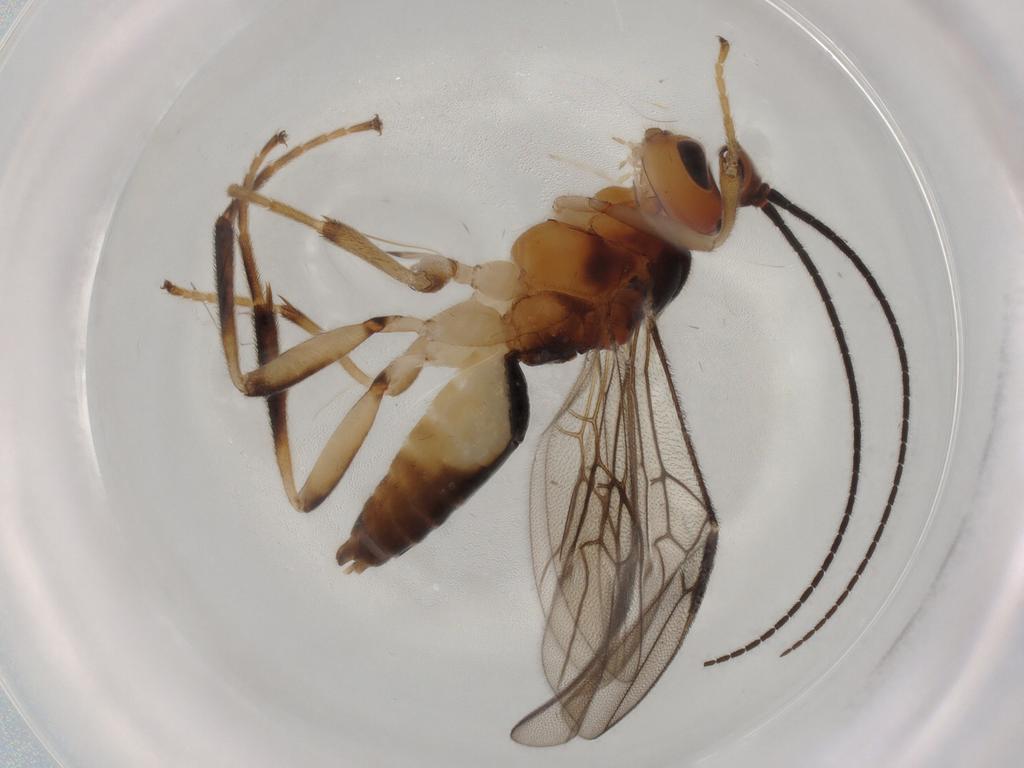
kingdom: Animalia
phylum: Arthropoda
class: Insecta
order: Hymenoptera
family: Braconidae
